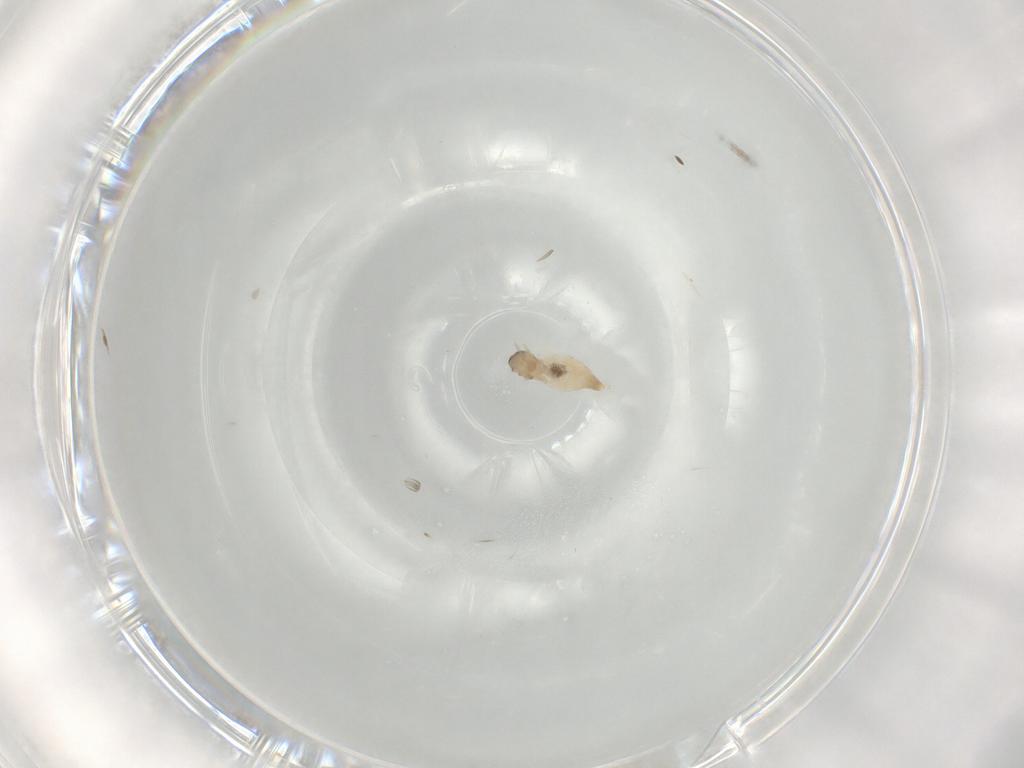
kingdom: Animalia
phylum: Arthropoda
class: Insecta
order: Diptera
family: Cecidomyiidae
